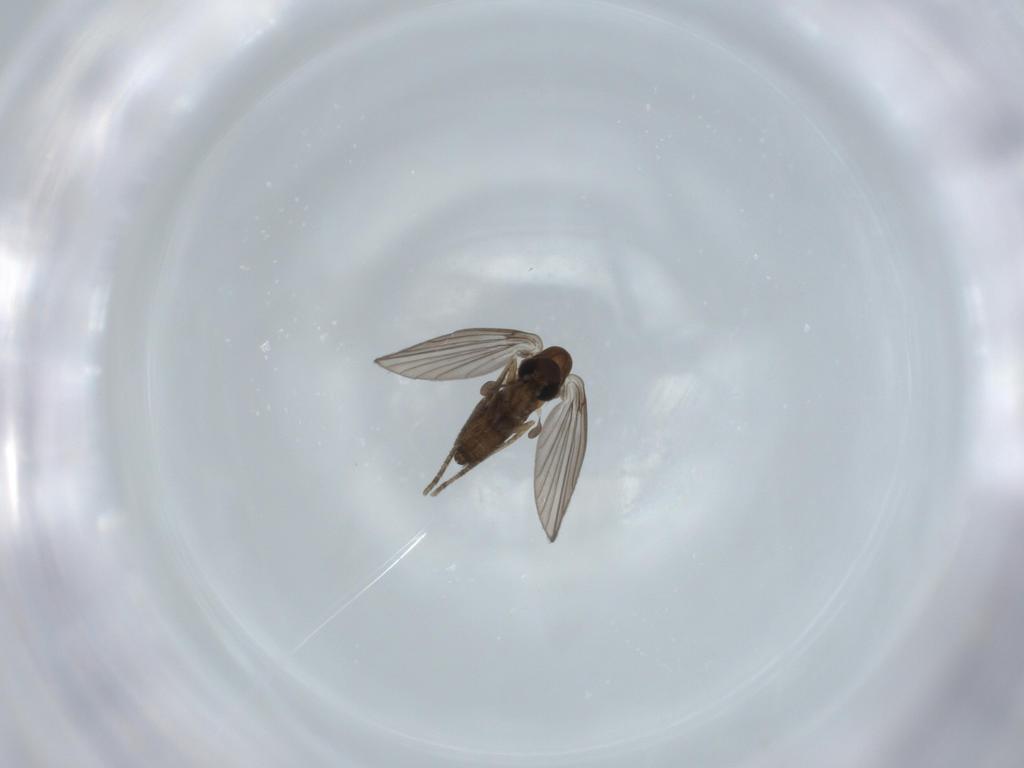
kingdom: Animalia
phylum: Arthropoda
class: Insecta
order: Diptera
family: Psychodidae
